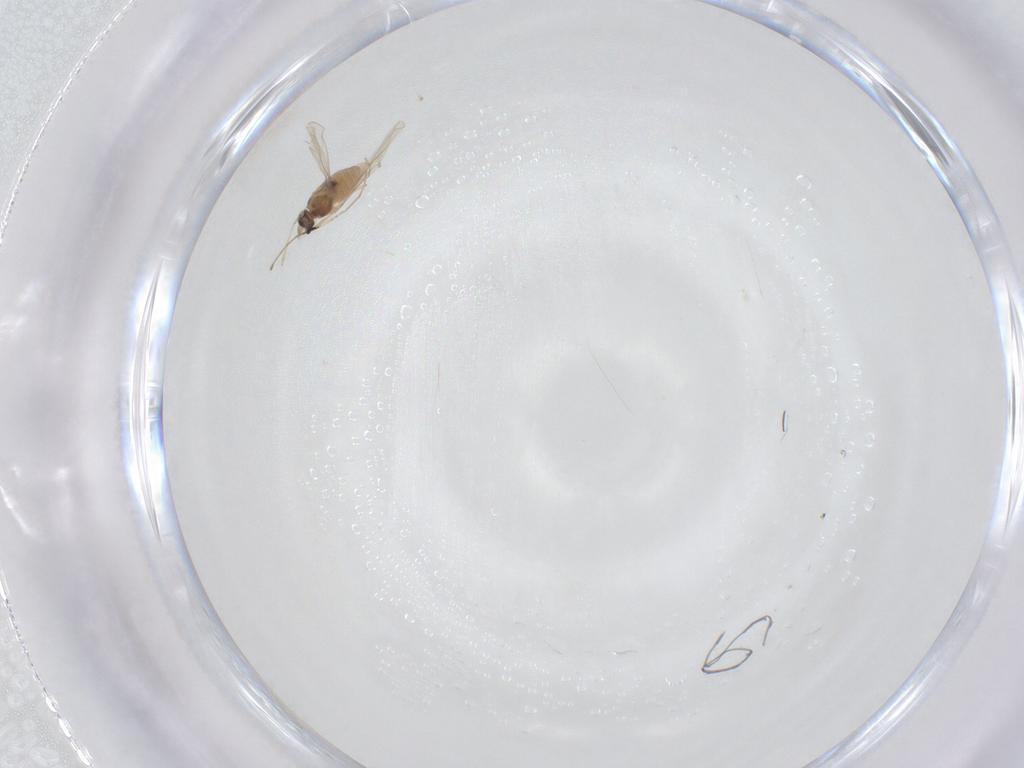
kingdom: Animalia
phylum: Arthropoda
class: Insecta
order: Diptera
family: Cecidomyiidae
